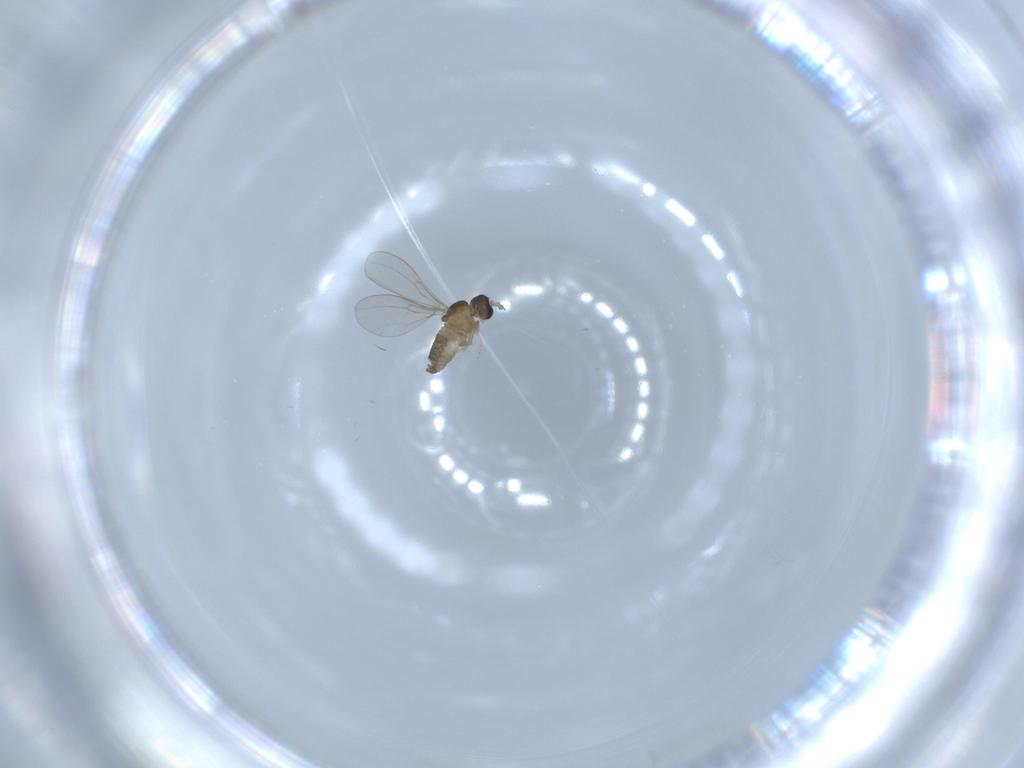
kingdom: Animalia
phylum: Arthropoda
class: Insecta
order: Diptera
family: Cecidomyiidae
